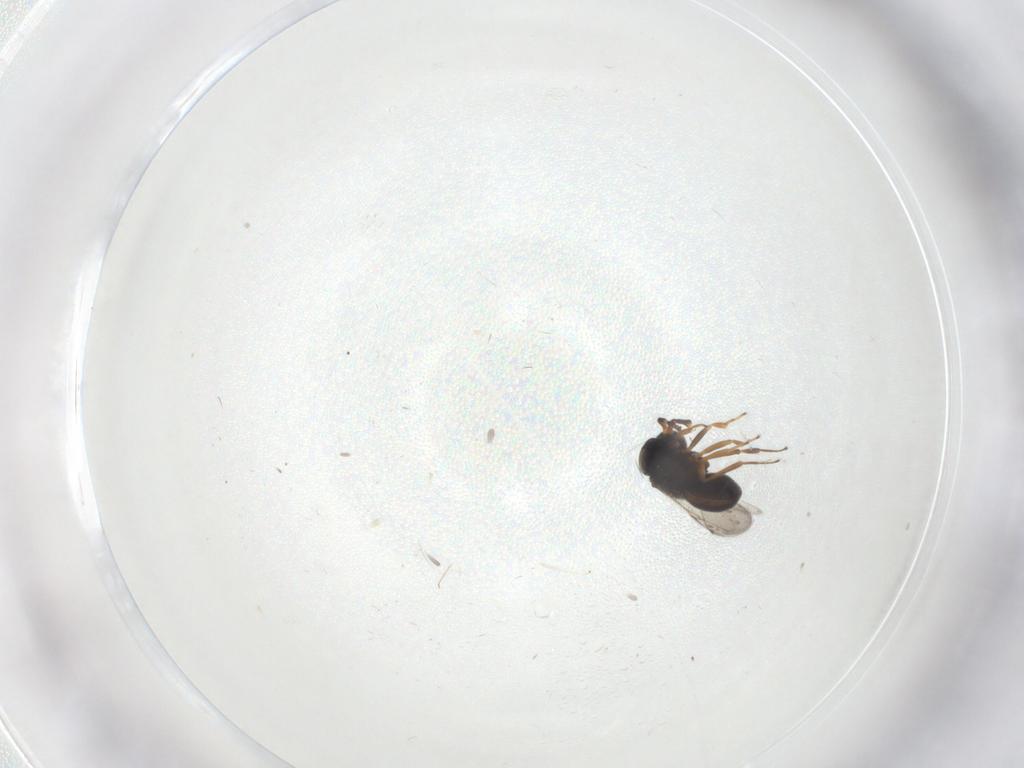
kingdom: Animalia
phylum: Arthropoda
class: Insecta
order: Hymenoptera
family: Scelionidae
